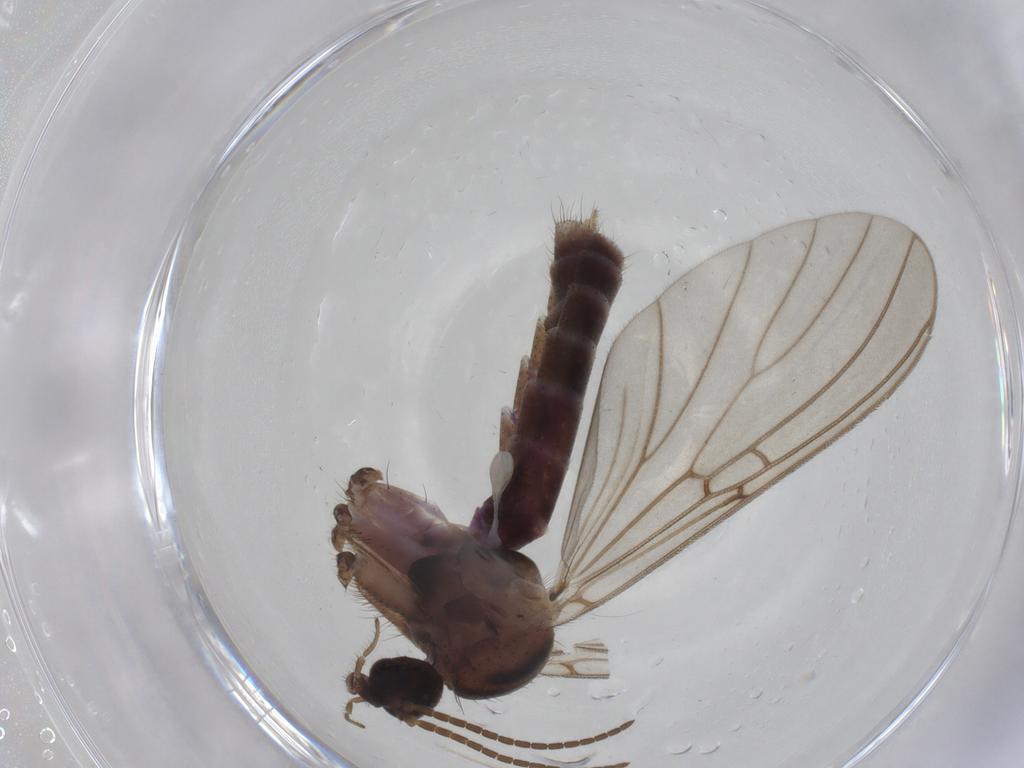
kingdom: Animalia
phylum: Arthropoda
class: Insecta
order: Diptera
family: Mycetophilidae
